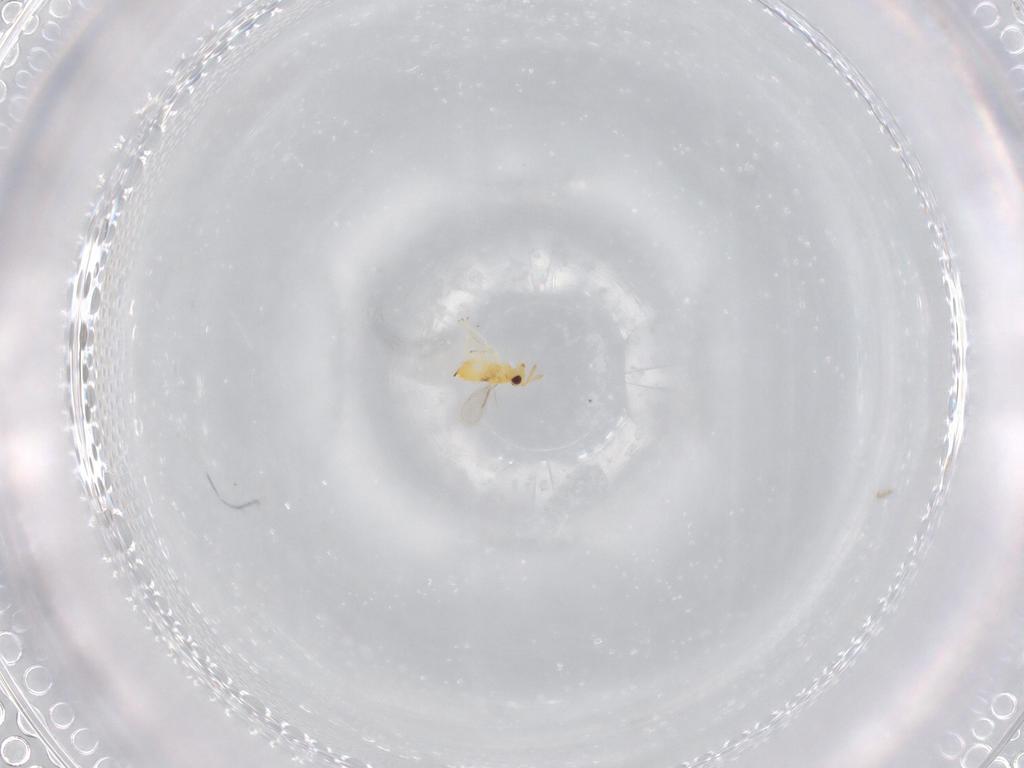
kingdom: Animalia
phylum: Arthropoda
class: Insecta
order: Hymenoptera
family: Aphelinidae
